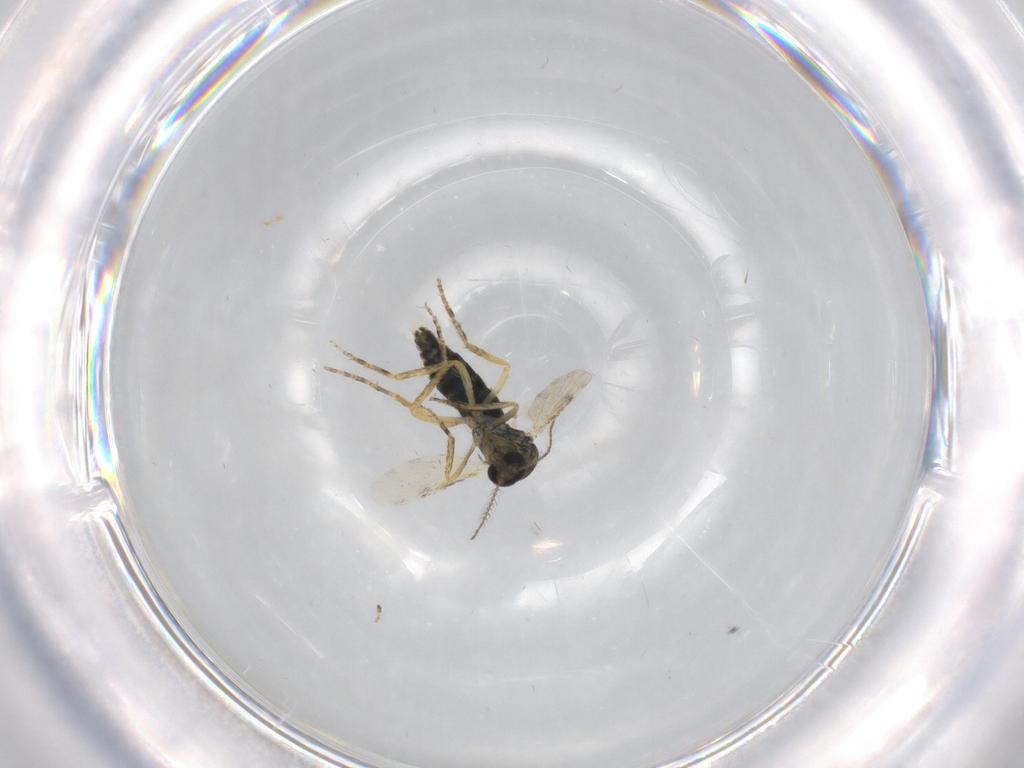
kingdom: Animalia
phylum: Arthropoda
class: Insecta
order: Diptera
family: Ceratopogonidae
